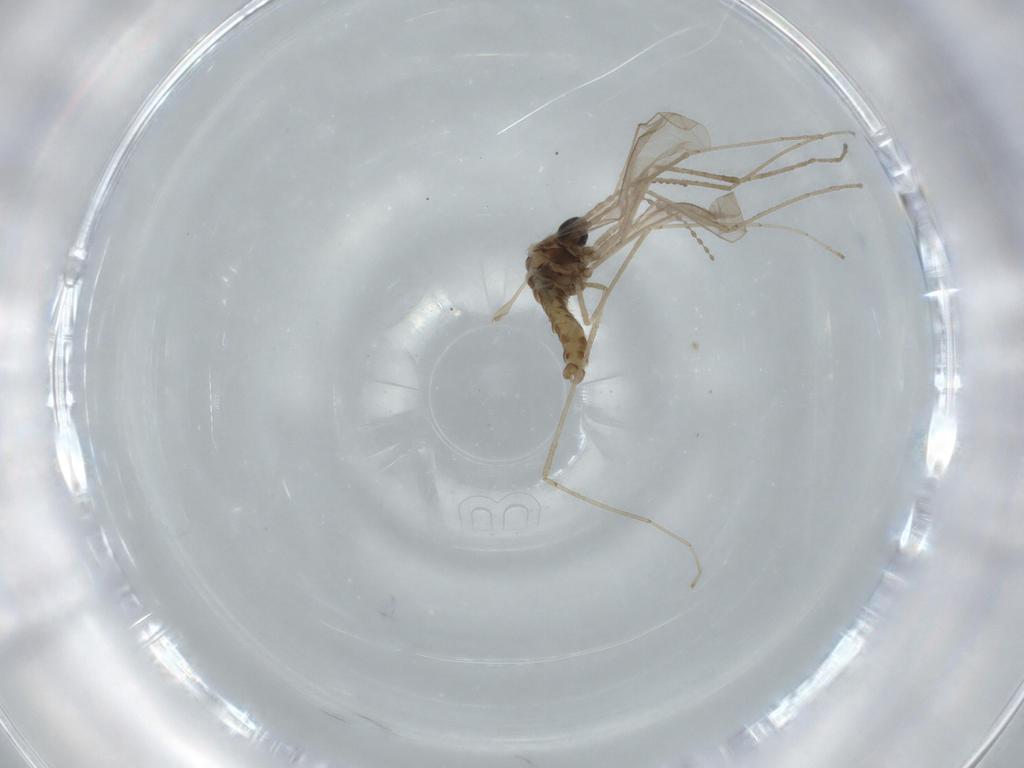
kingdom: Animalia
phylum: Arthropoda
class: Insecta
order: Diptera
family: Cecidomyiidae
